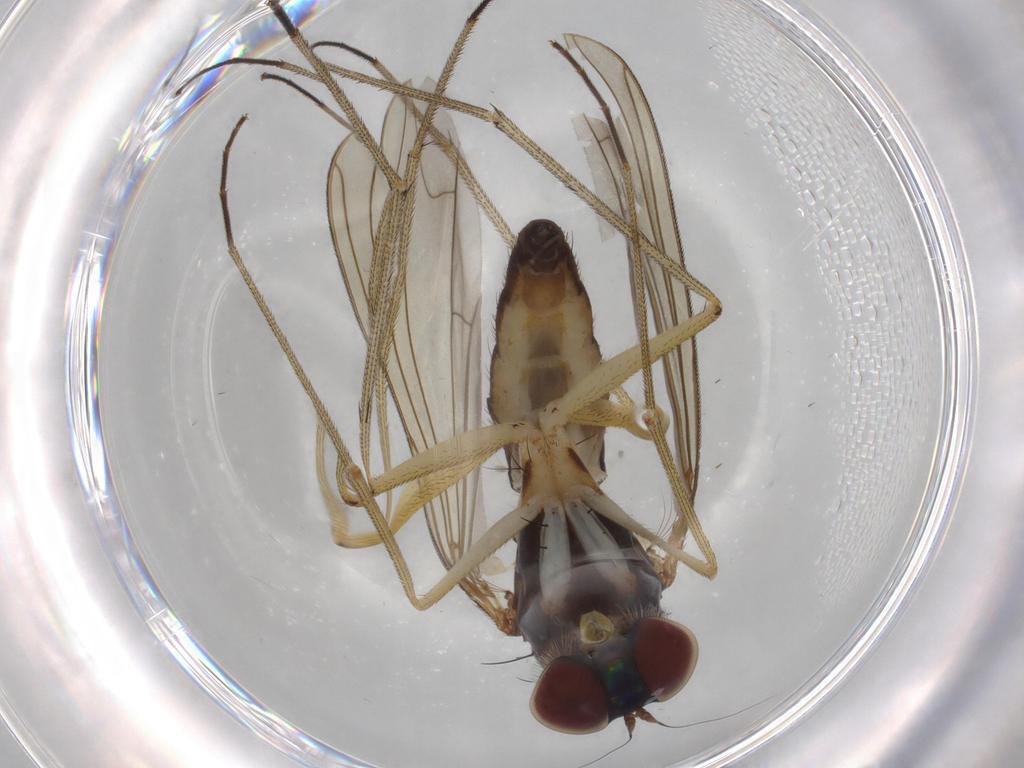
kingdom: Animalia
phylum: Arthropoda
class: Insecta
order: Diptera
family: Dolichopodidae
